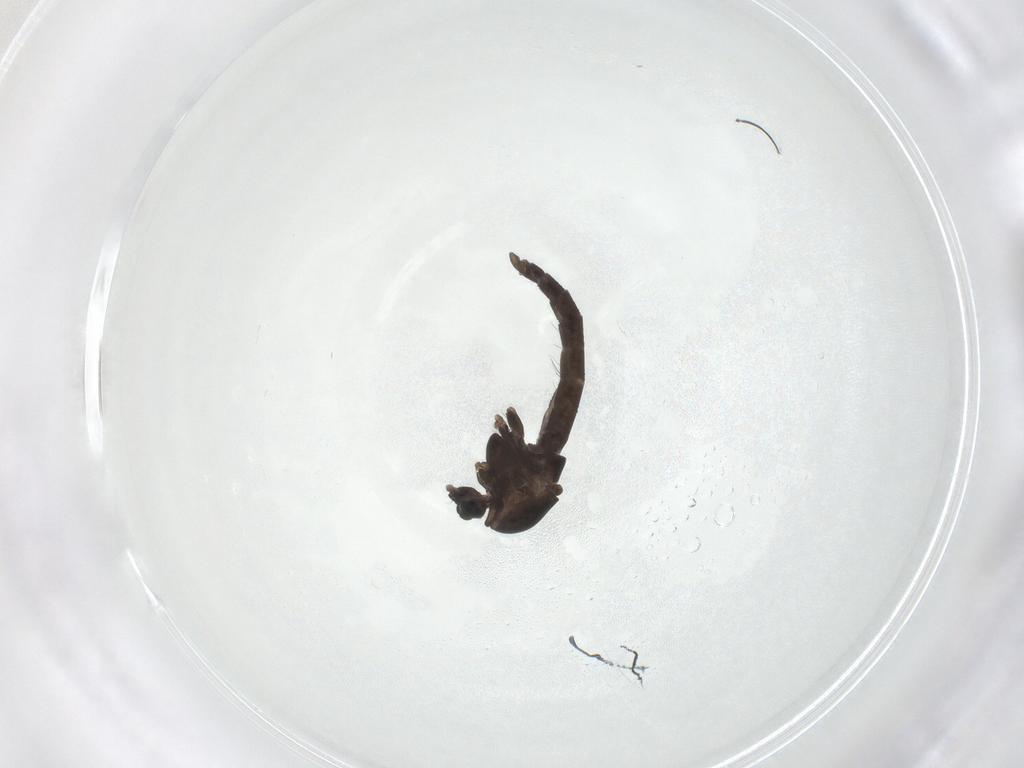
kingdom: Animalia
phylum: Arthropoda
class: Insecta
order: Diptera
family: Chironomidae
